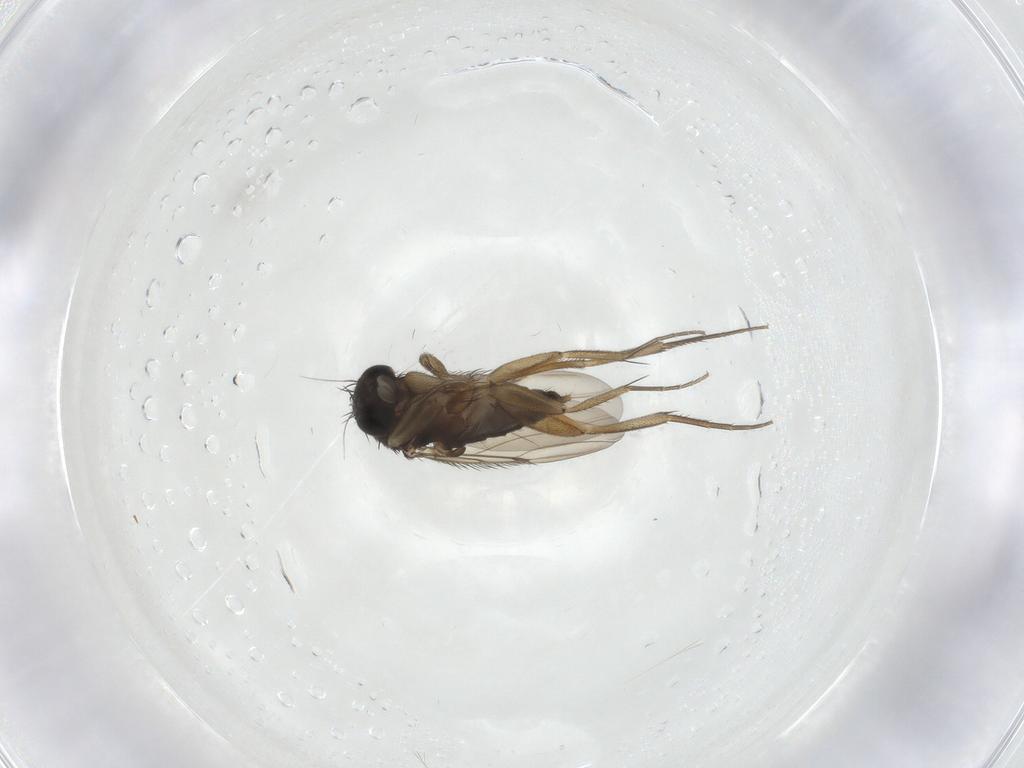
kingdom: Animalia
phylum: Arthropoda
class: Insecta
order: Diptera
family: Phoridae
